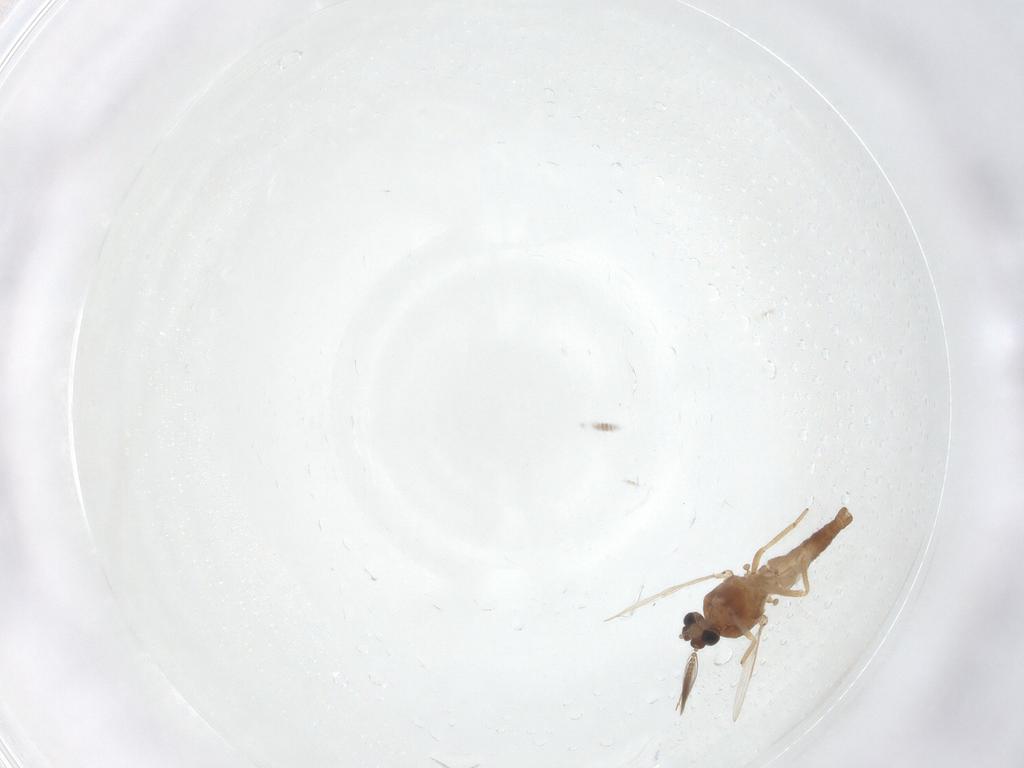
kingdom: Animalia
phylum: Arthropoda
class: Insecta
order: Diptera
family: Ceratopogonidae
